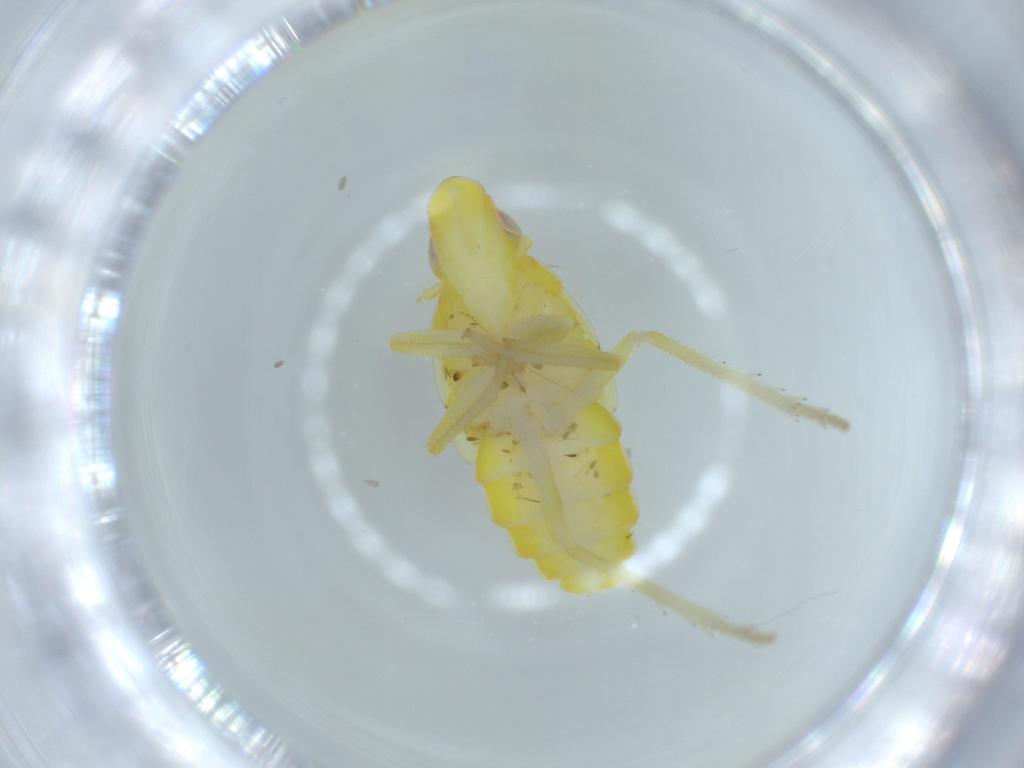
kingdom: Animalia
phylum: Arthropoda
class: Insecta
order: Hemiptera
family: Tropiduchidae
